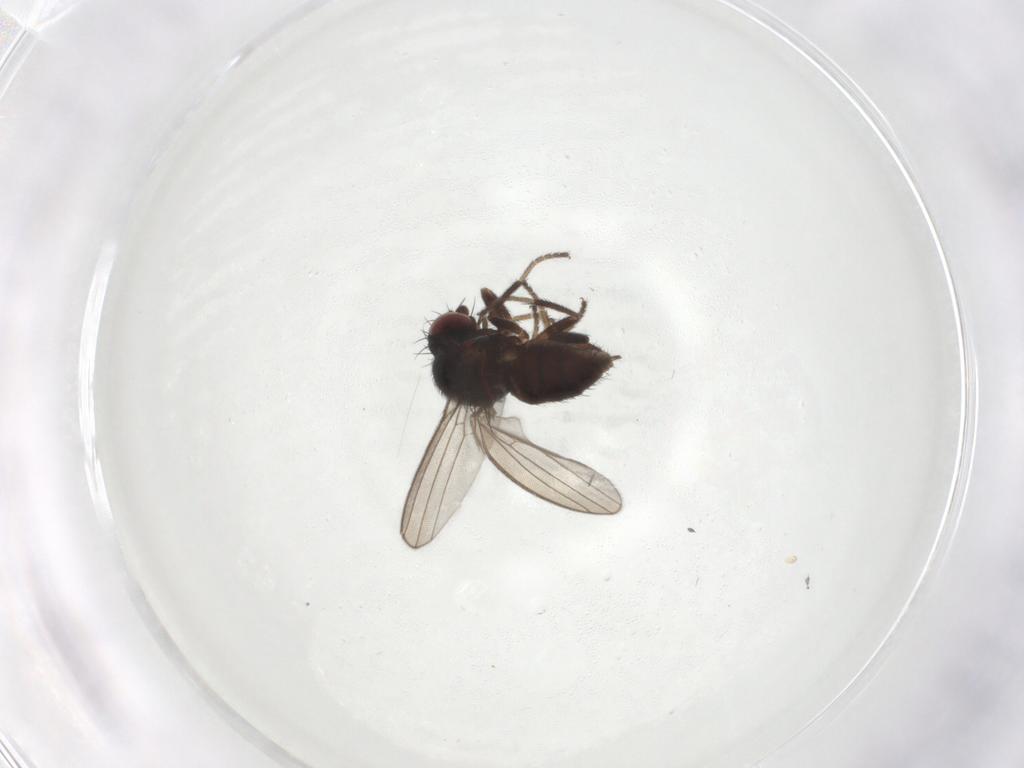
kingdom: Animalia
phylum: Arthropoda
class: Insecta
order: Diptera
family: Milichiidae
